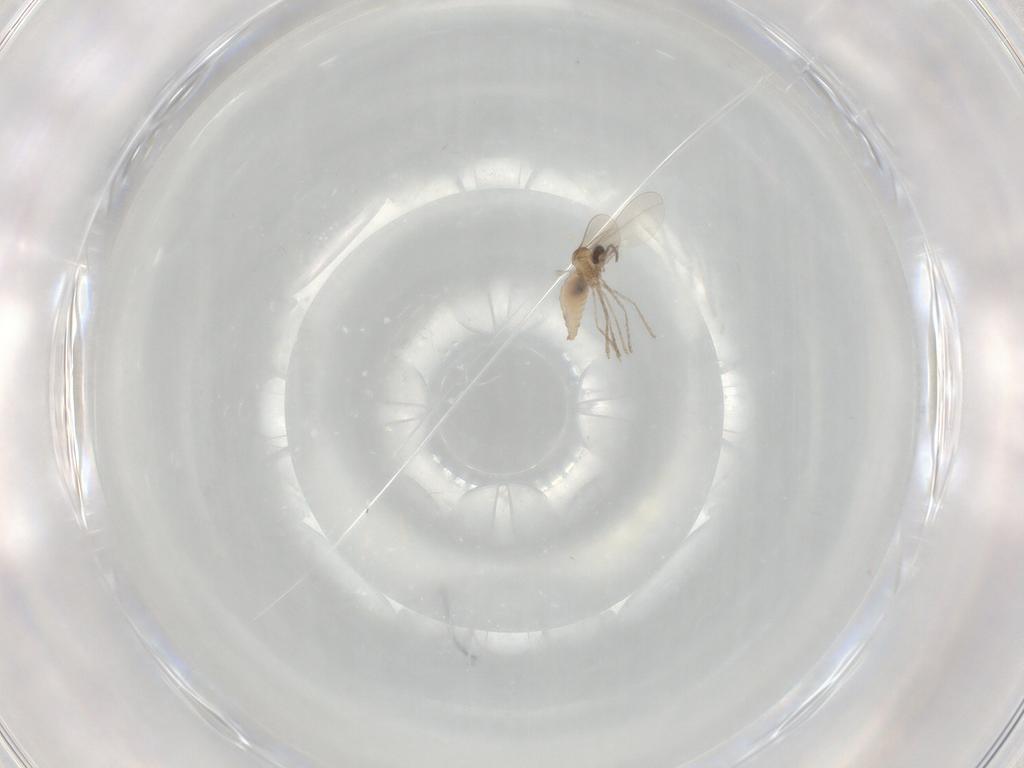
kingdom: Animalia
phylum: Arthropoda
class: Insecta
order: Diptera
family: Cecidomyiidae
